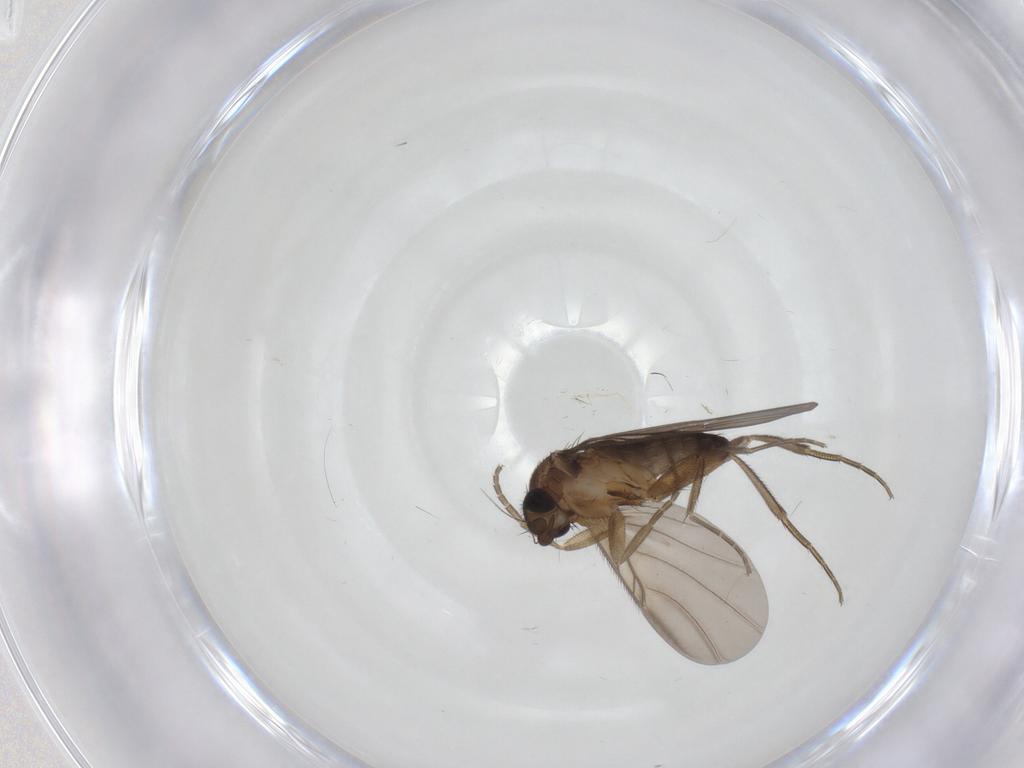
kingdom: Animalia
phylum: Arthropoda
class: Insecta
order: Diptera
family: Phoridae
